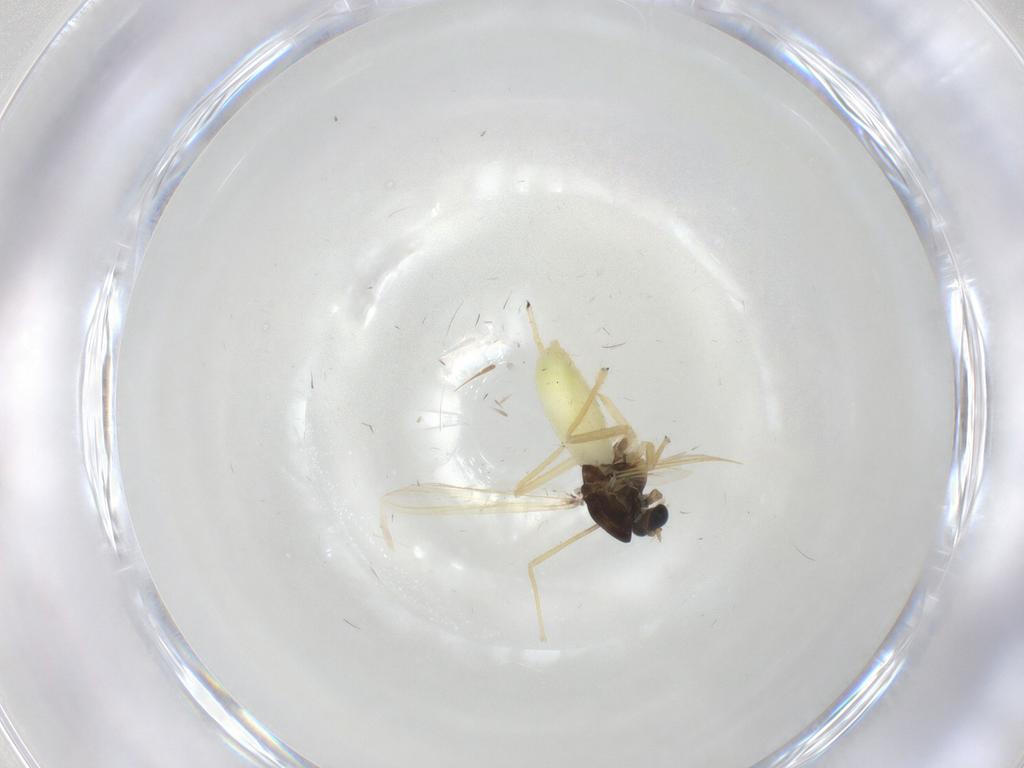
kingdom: Animalia
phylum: Arthropoda
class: Insecta
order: Diptera
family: Chironomidae
